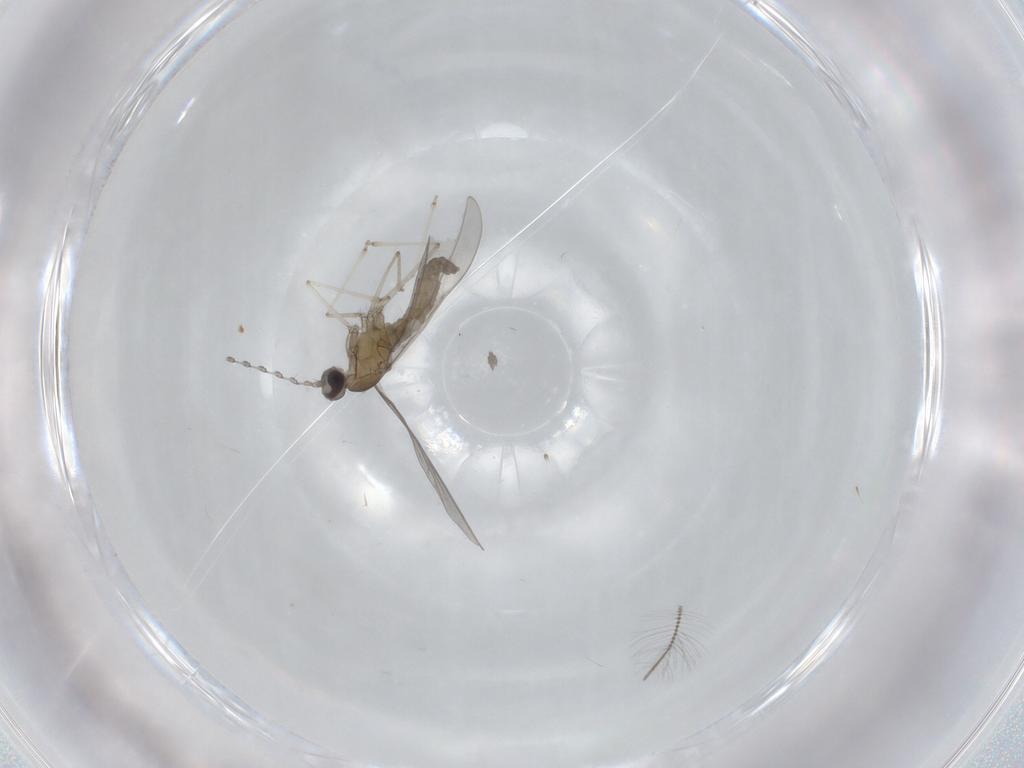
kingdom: Animalia
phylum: Arthropoda
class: Insecta
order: Diptera
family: Cecidomyiidae
